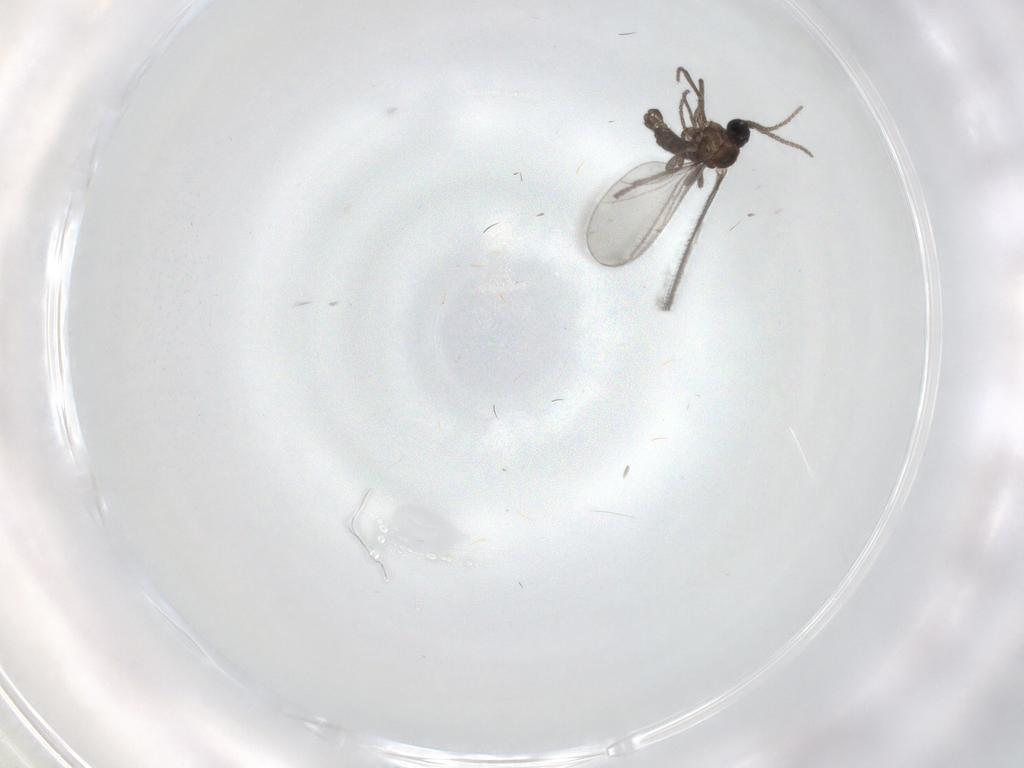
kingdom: Animalia
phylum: Arthropoda
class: Insecta
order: Diptera
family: Sciaridae
